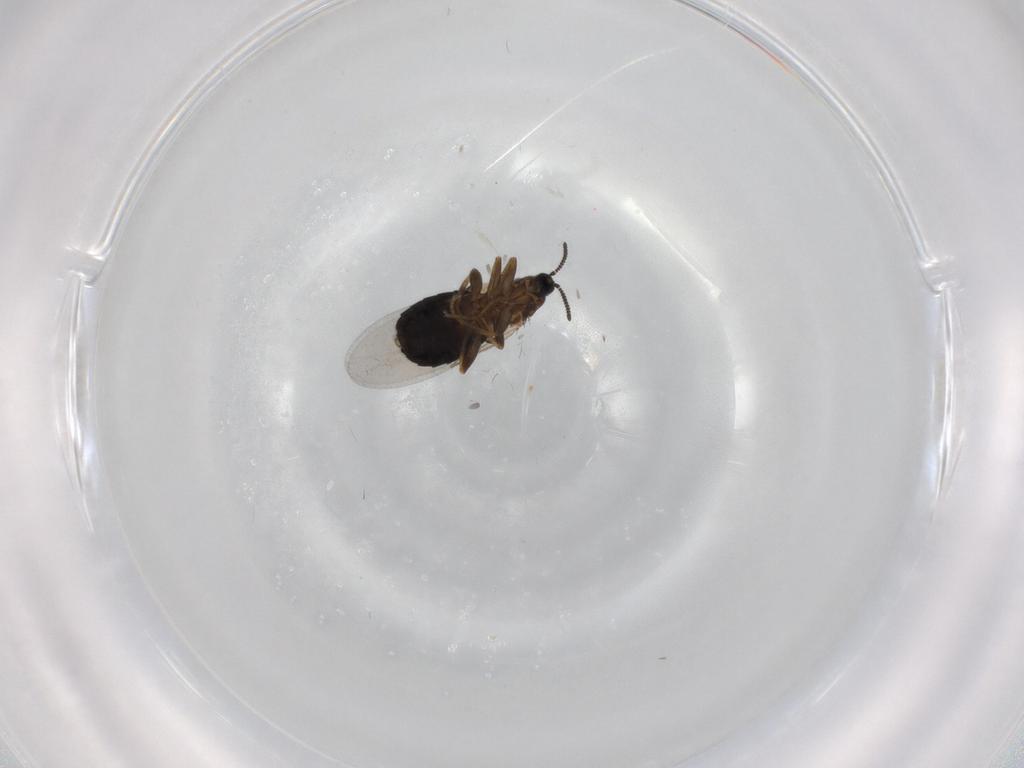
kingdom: Animalia
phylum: Arthropoda
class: Insecta
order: Diptera
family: Scatopsidae
